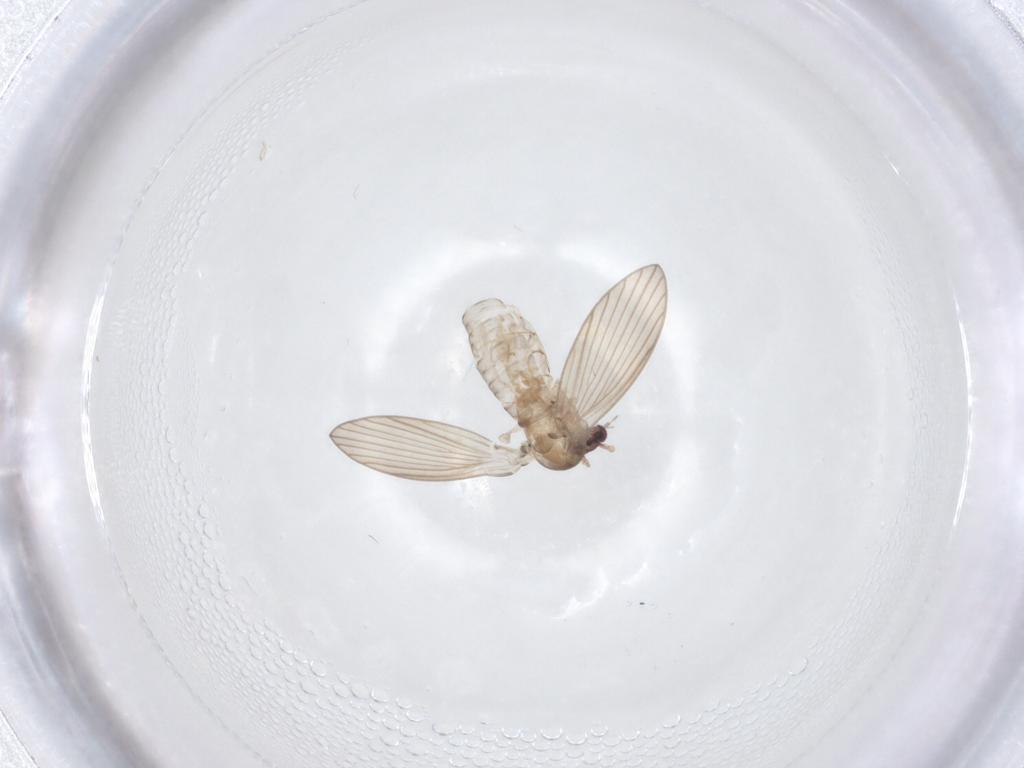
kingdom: Animalia
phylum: Arthropoda
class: Insecta
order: Diptera
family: Psychodidae
